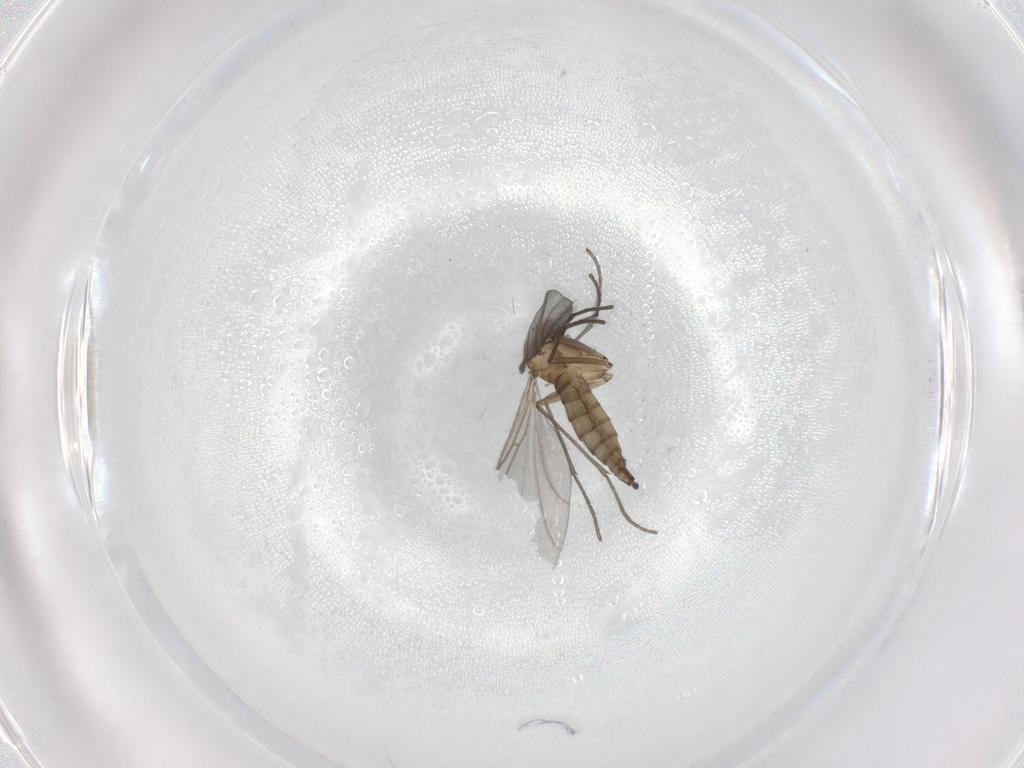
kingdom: Animalia
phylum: Arthropoda
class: Insecta
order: Diptera
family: Sciaridae
